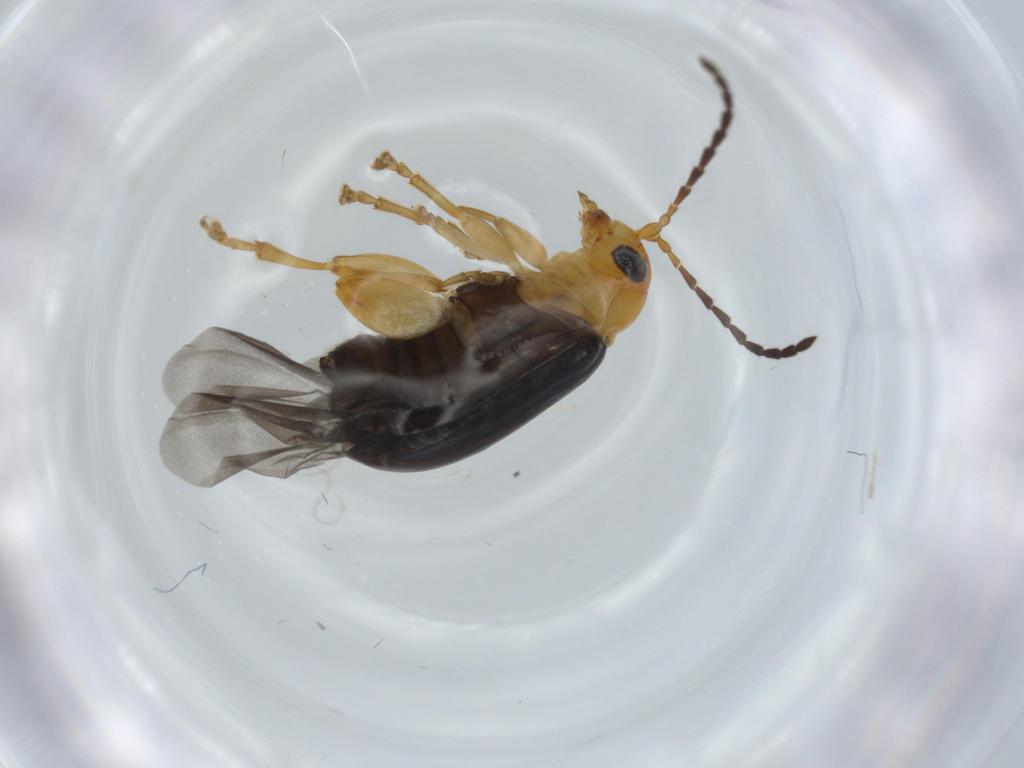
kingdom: Animalia
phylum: Arthropoda
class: Insecta
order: Coleoptera
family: Chrysomelidae
